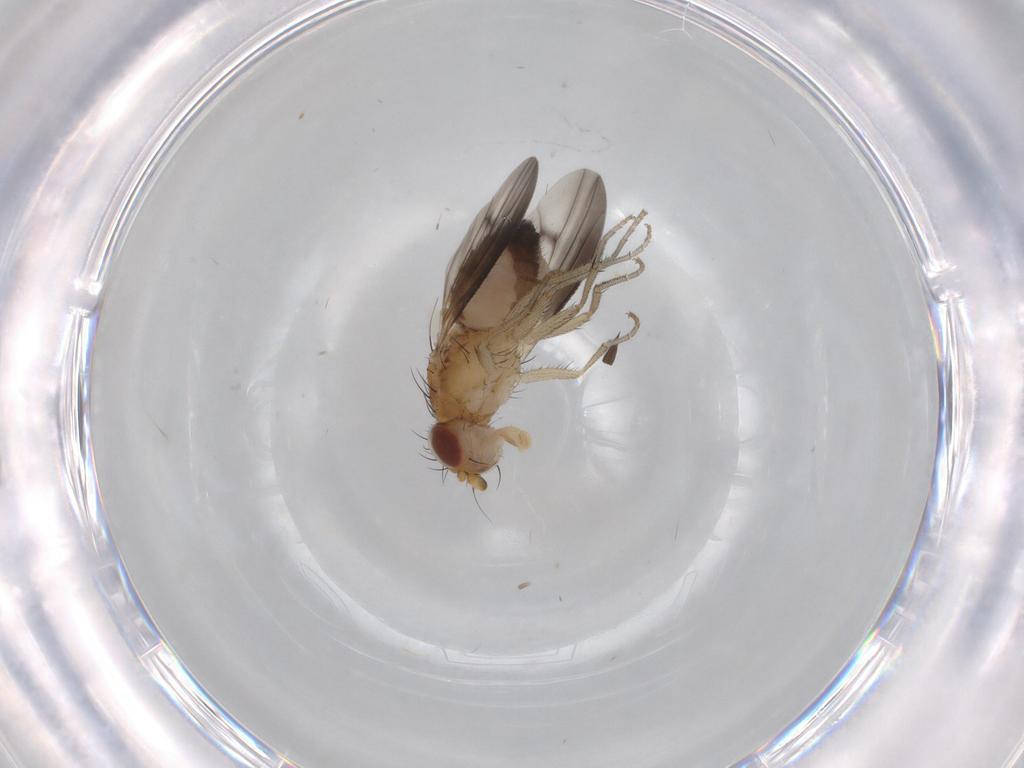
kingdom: Animalia
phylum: Arthropoda
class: Insecta
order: Diptera
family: Heleomyzidae
